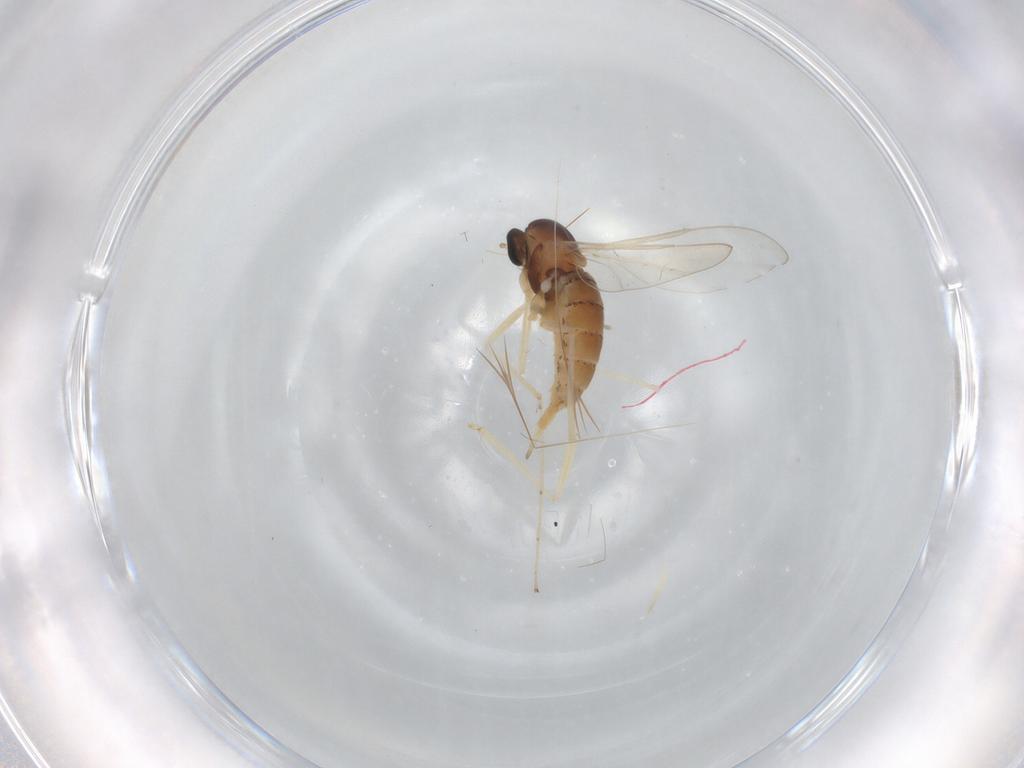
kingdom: Animalia
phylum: Arthropoda
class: Insecta
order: Diptera
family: Cecidomyiidae
